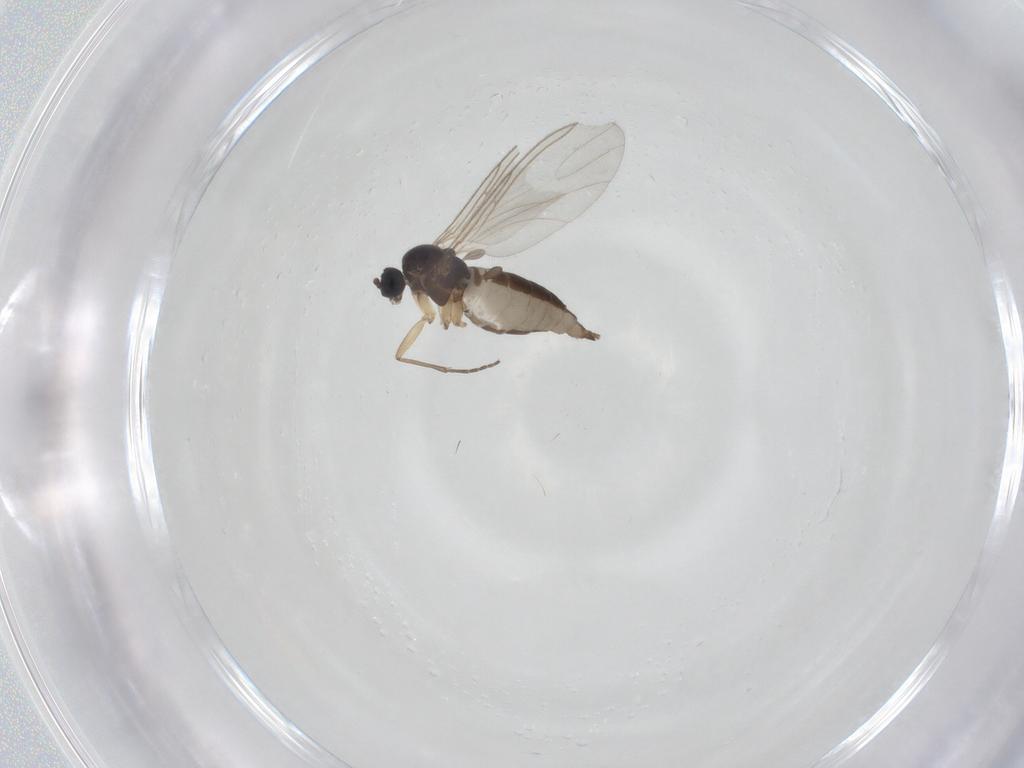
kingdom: Animalia
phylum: Arthropoda
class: Insecta
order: Diptera
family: Sciaridae
